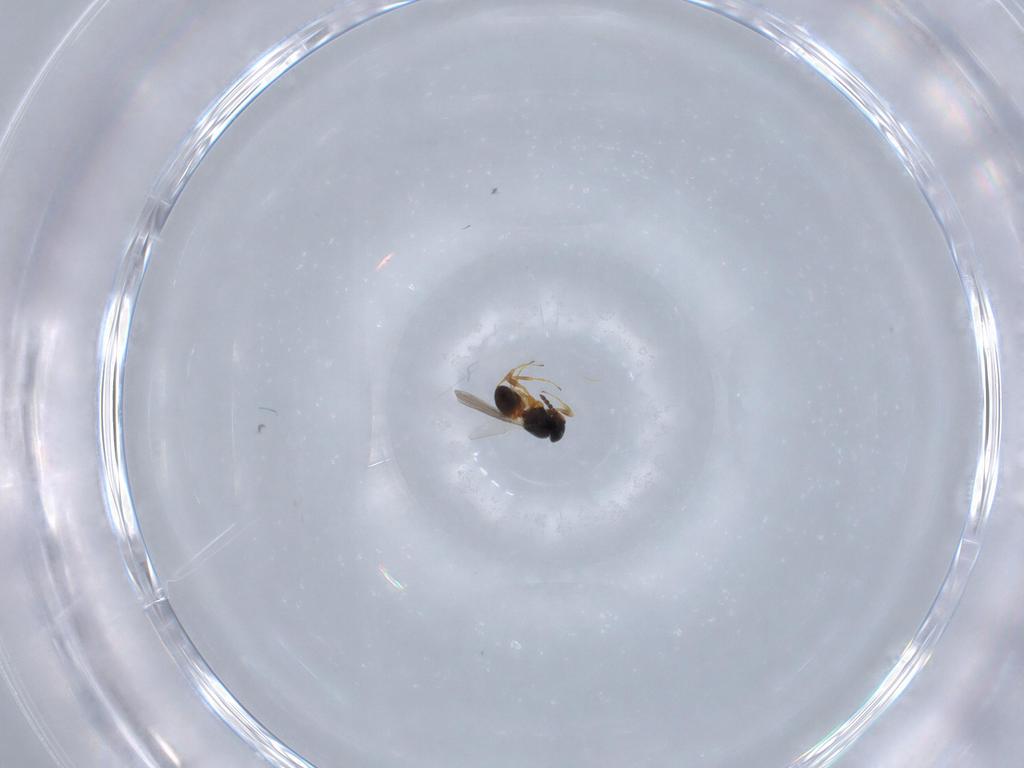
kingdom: Animalia
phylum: Arthropoda
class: Insecta
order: Hymenoptera
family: Platygastridae
